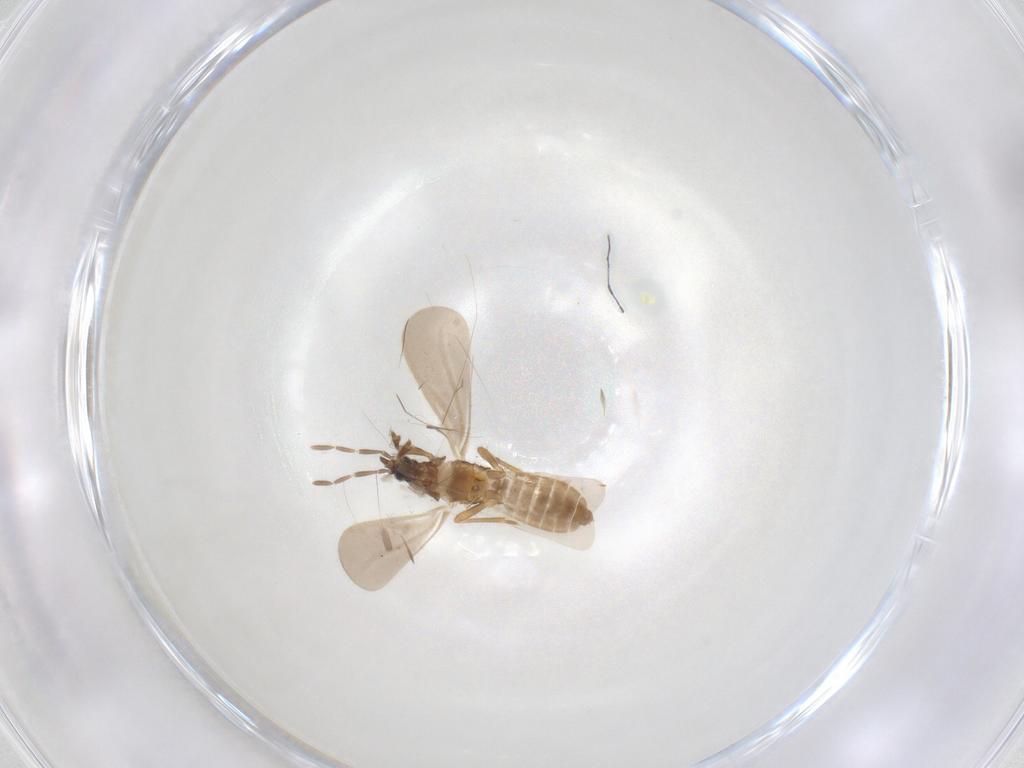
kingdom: Animalia
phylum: Arthropoda
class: Insecta
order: Hemiptera
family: Enicocephalidae
